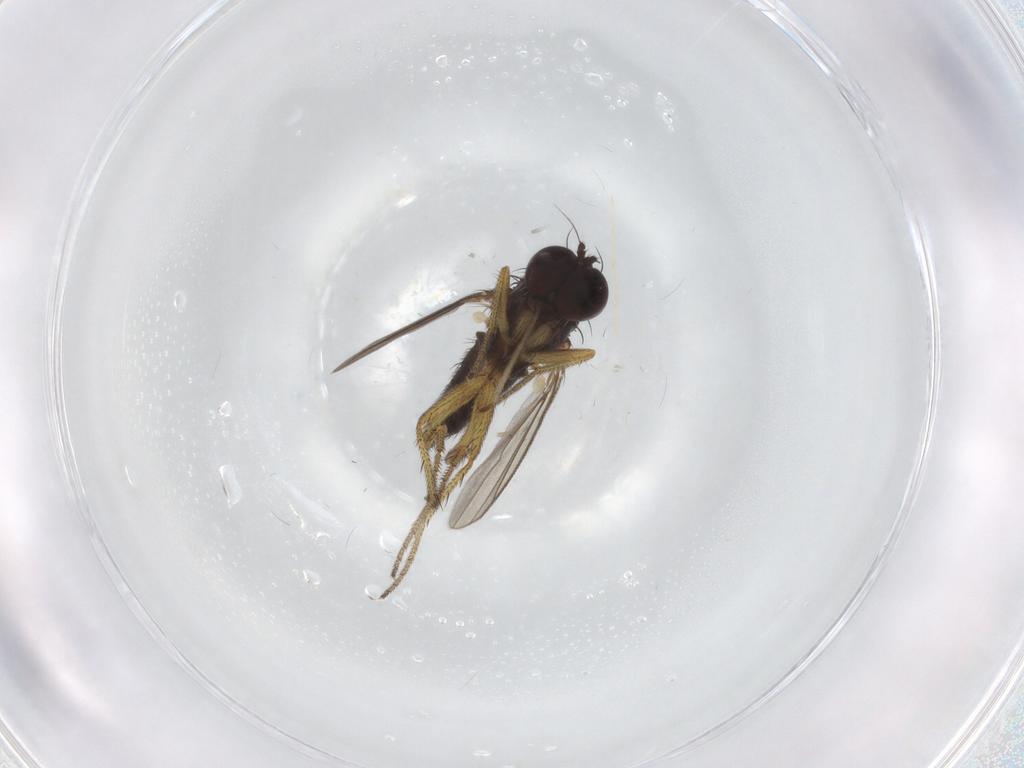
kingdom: Animalia
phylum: Arthropoda
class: Insecta
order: Diptera
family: Dolichopodidae
